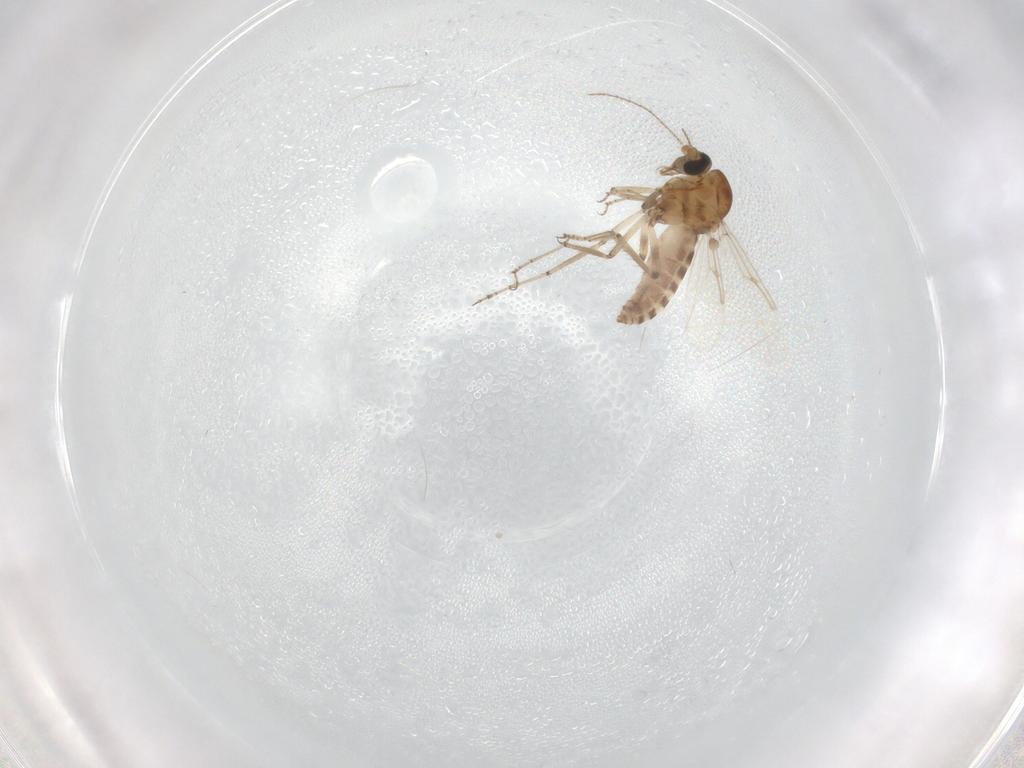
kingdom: Animalia
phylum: Arthropoda
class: Insecta
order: Diptera
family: Ceratopogonidae
